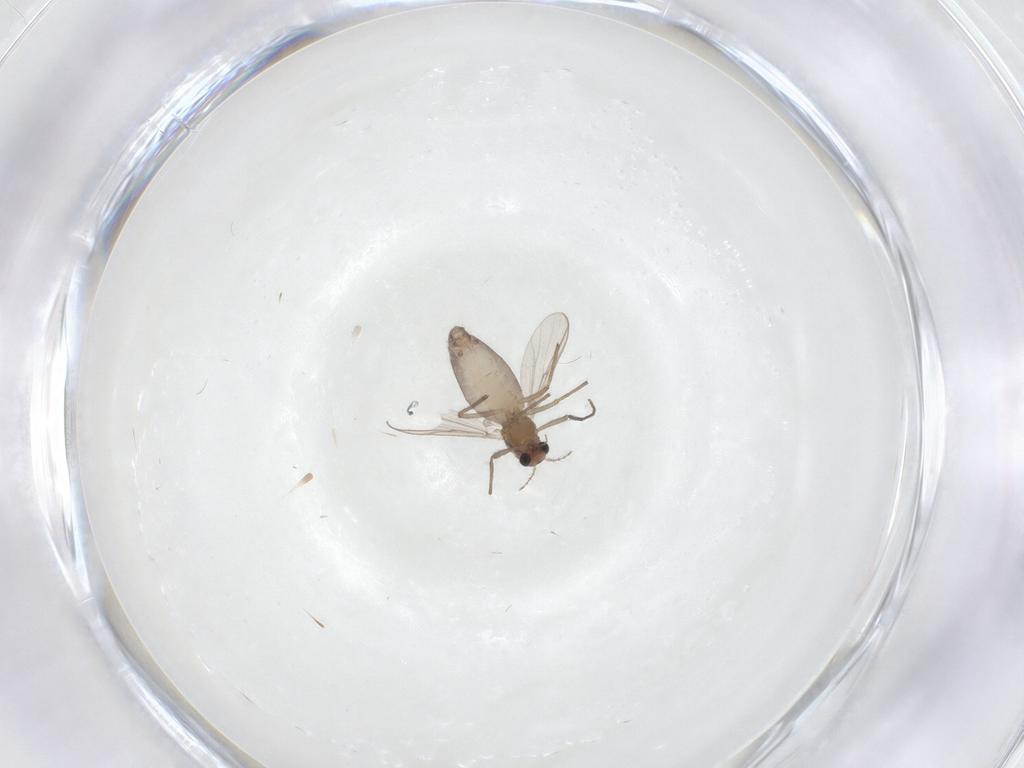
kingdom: Animalia
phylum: Arthropoda
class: Insecta
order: Diptera
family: Chironomidae
